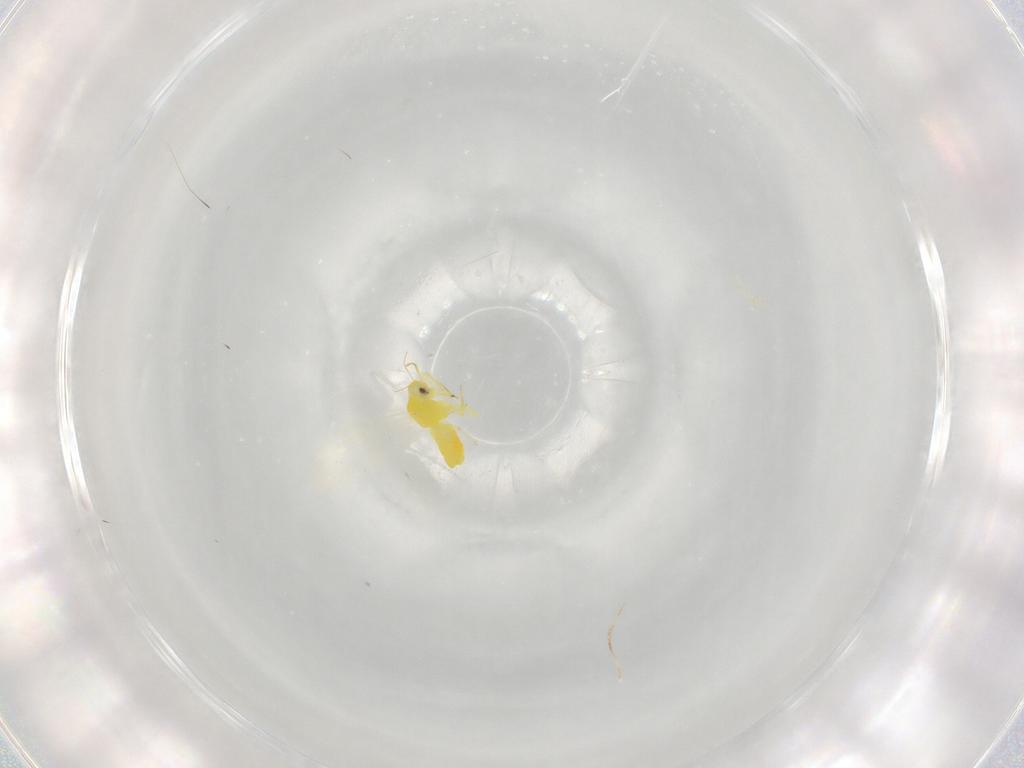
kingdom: Animalia
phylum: Arthropoda
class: Insecta
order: Hemiptera
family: Aleyrodidae
